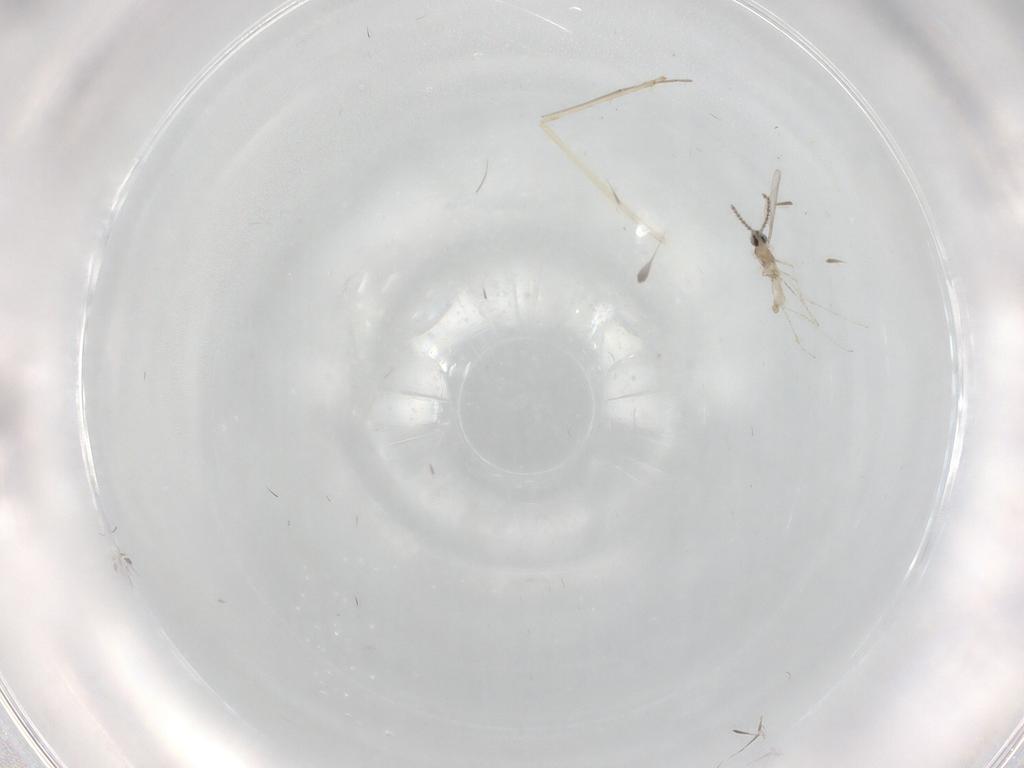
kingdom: Animalia
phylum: Arthropoda
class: Insecta
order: Diptera
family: Cecidomyiidae
